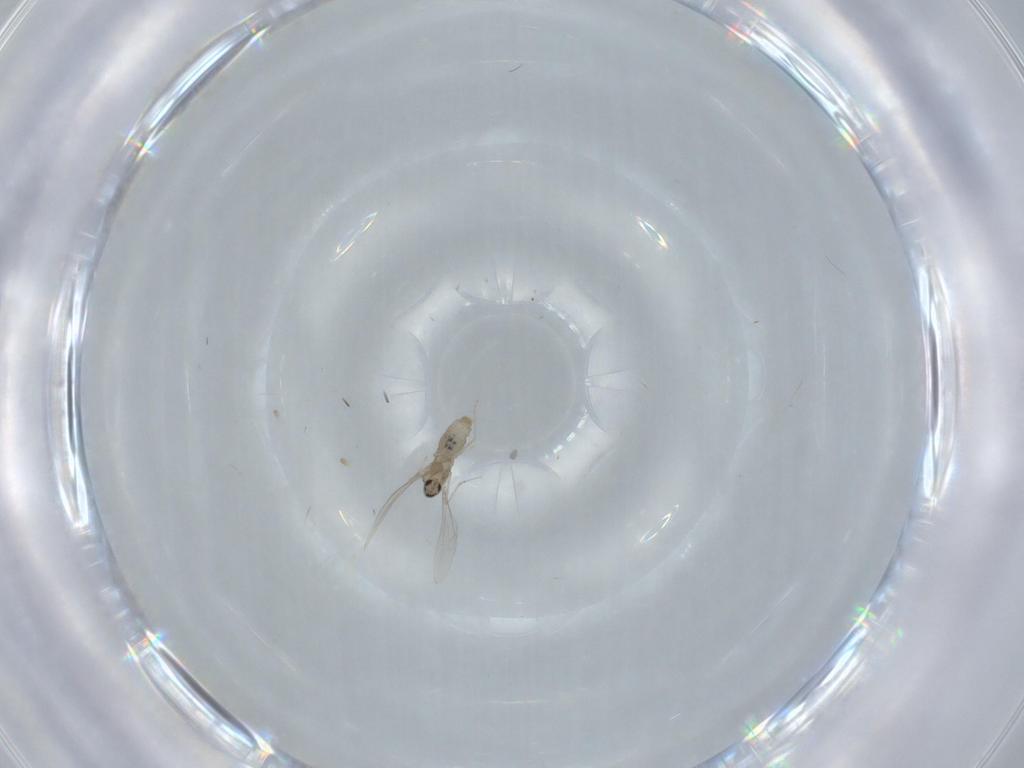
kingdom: Animalia
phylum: Arthropoda
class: Insecta
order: Diptera
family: Cecidomyiidae
